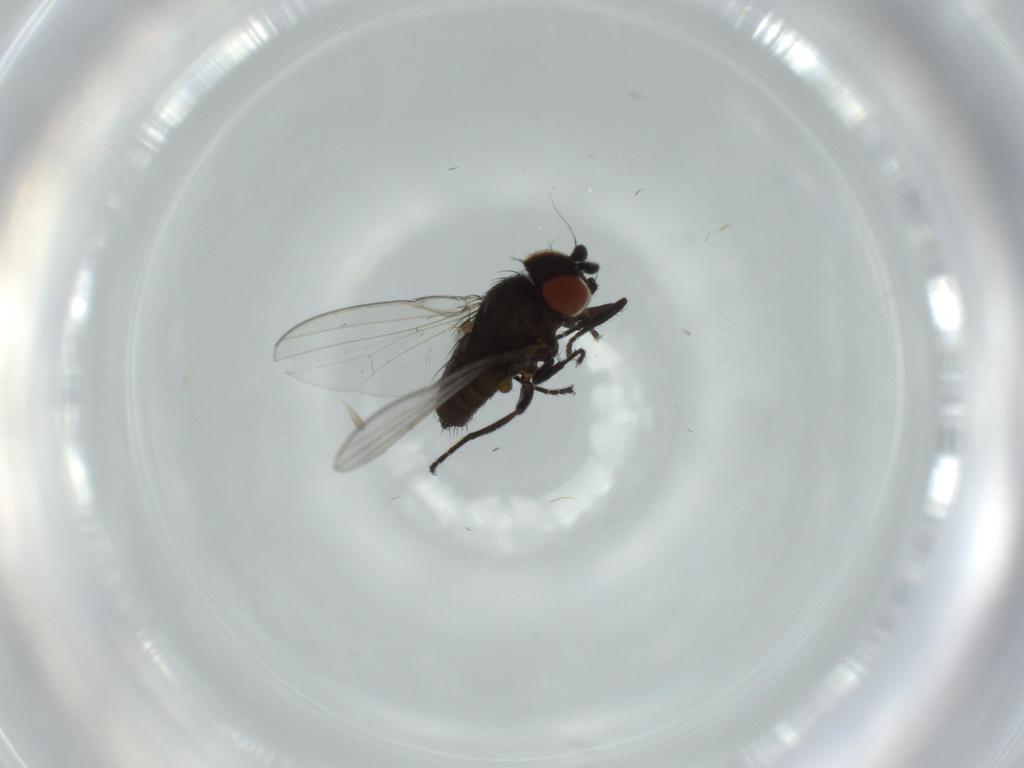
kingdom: Animalia
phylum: Arthropoda
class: Insecta
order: Diptera
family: Milichiidae
